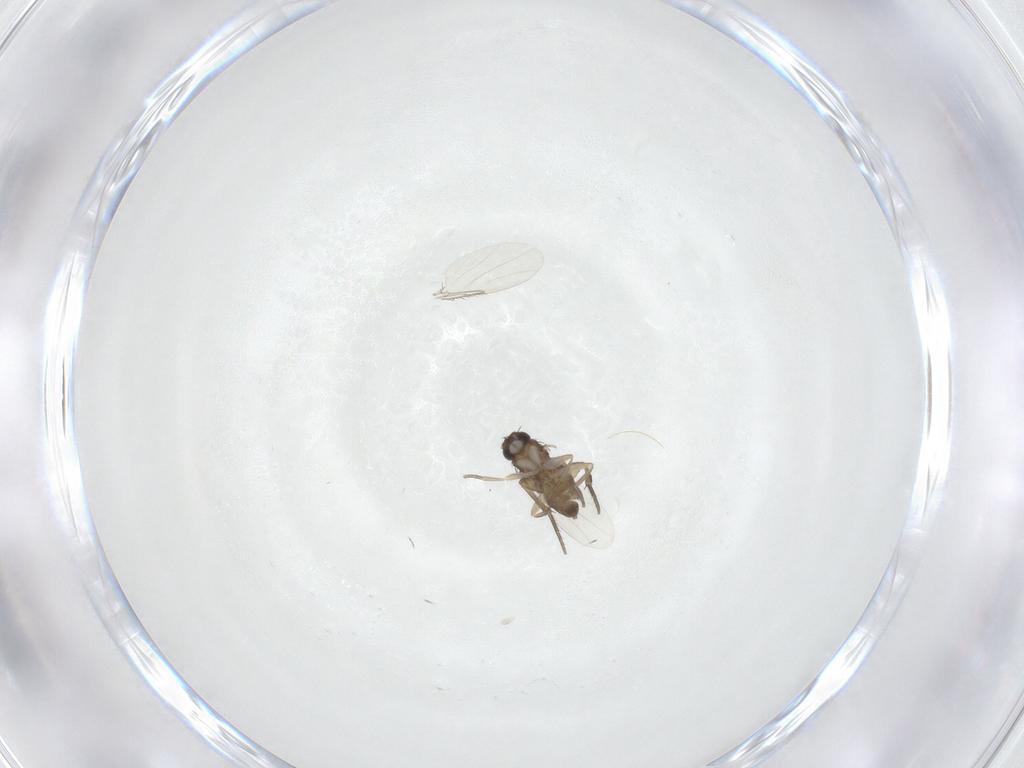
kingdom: Animalia
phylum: Arthropoda
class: Insecta
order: Diptera
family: Phoridae
